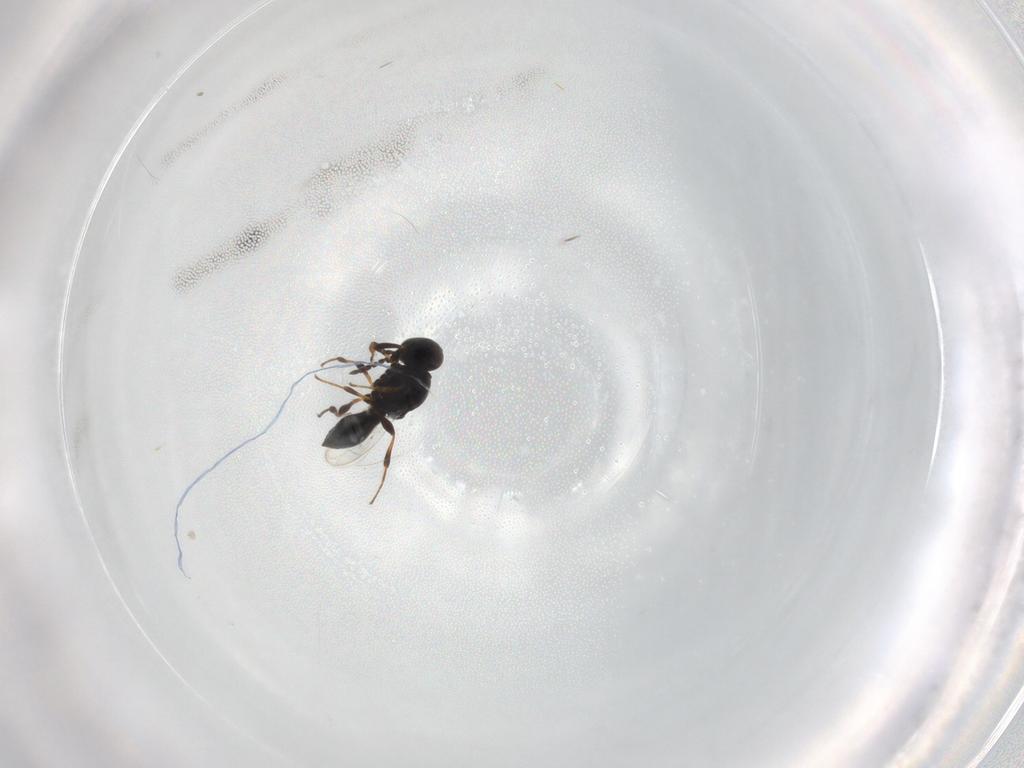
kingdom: Animalia
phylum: Arthropoda
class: Insecta
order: Hymenoptera
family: Platygastridae
